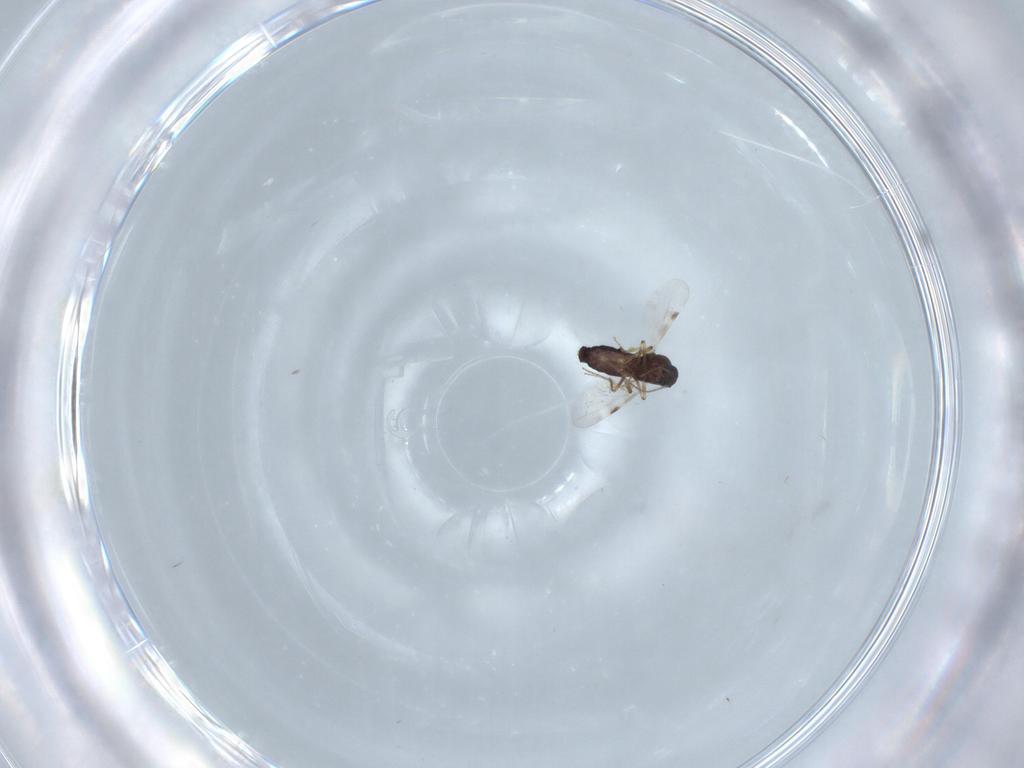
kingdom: Animalia
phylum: Arthropoda
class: Insecta
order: Diptera
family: Cecidomyiidae
